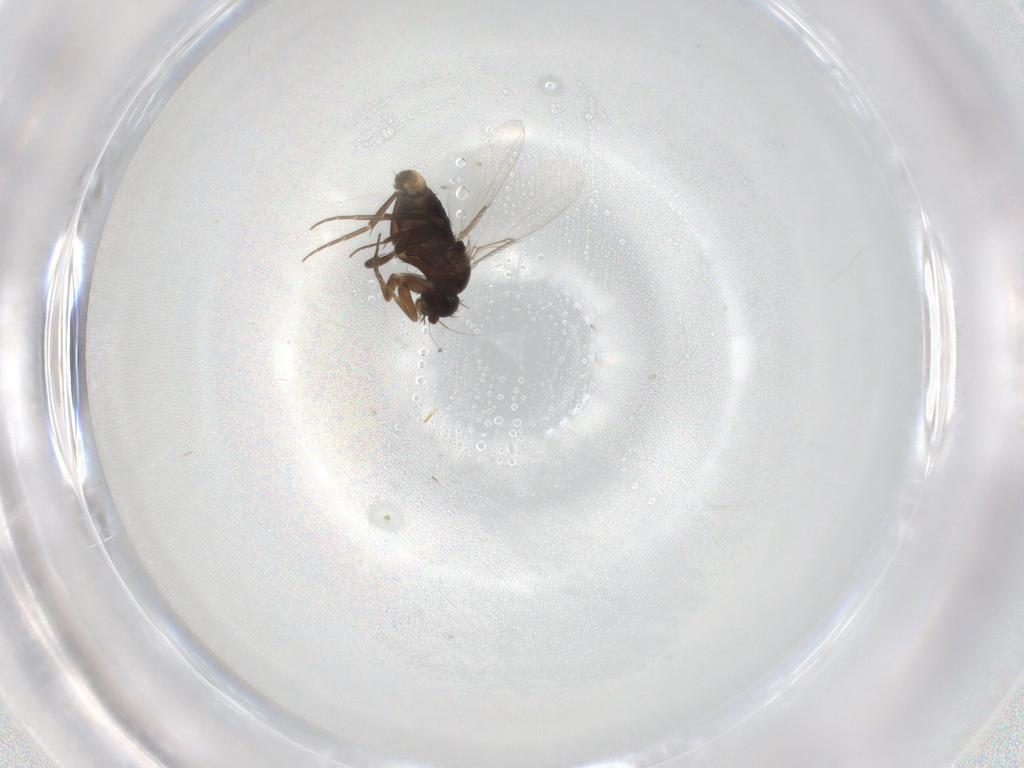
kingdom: Animalia
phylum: Arthropoda
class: Insecta
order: Diptera
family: Phoridae
